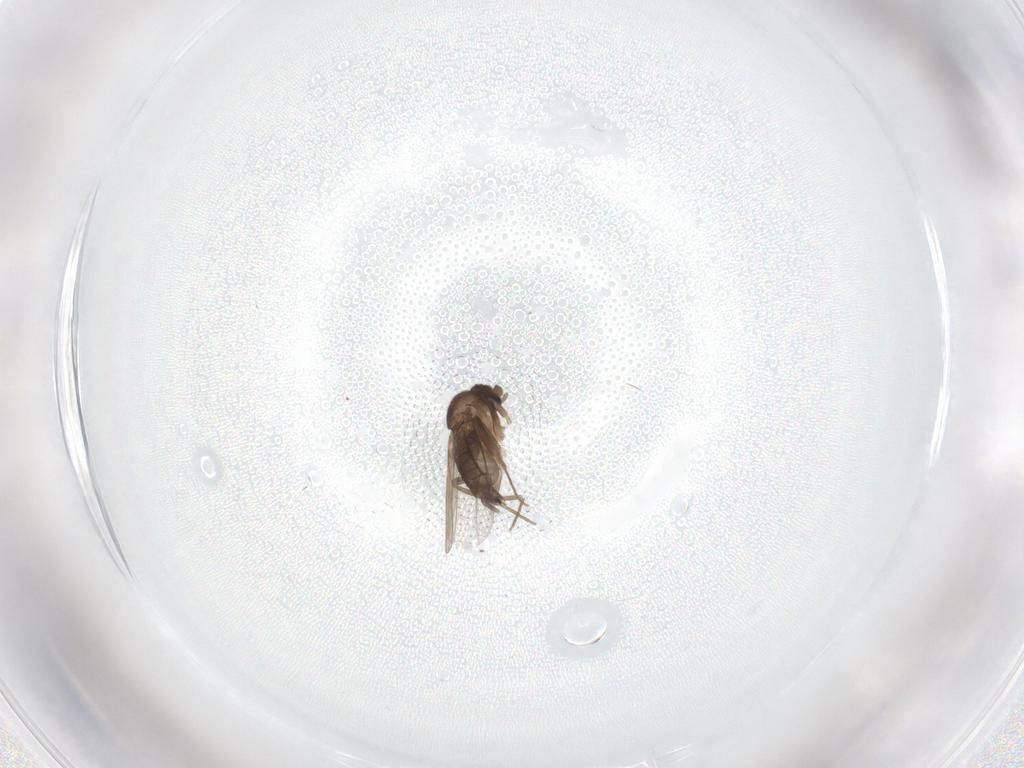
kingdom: Animalia
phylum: Arthropoda
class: Insecta
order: Diptera
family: Phoridae
